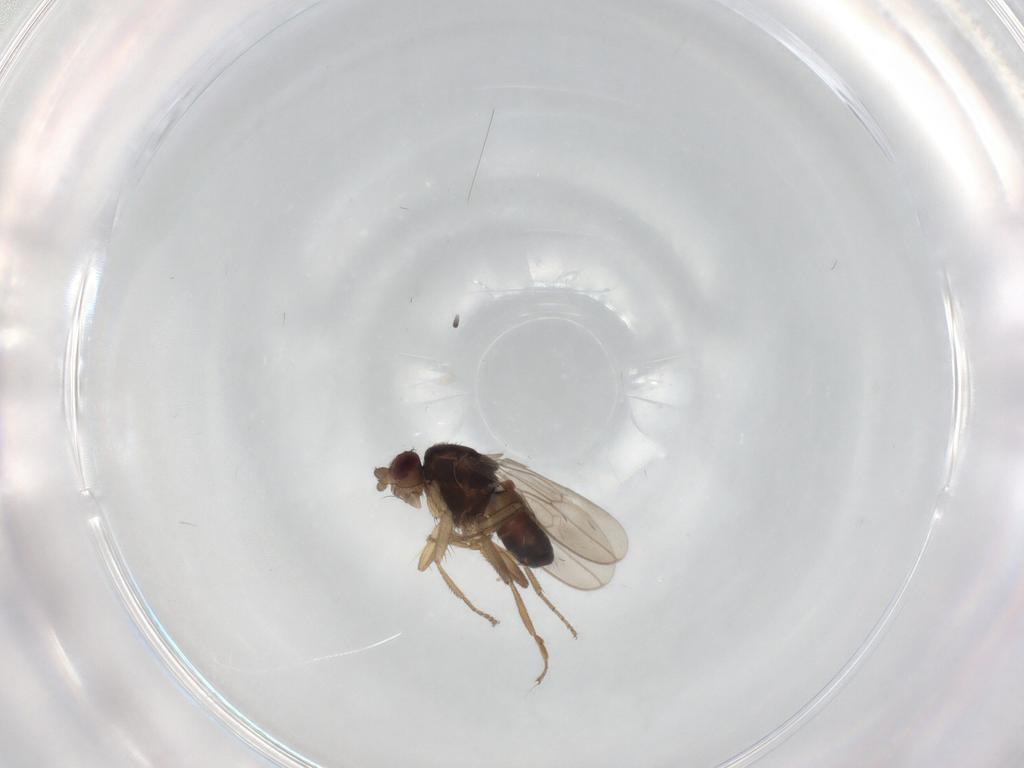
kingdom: Animalia
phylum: Arthropoda
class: Insecta
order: Diptera
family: Sphaeroceridae
